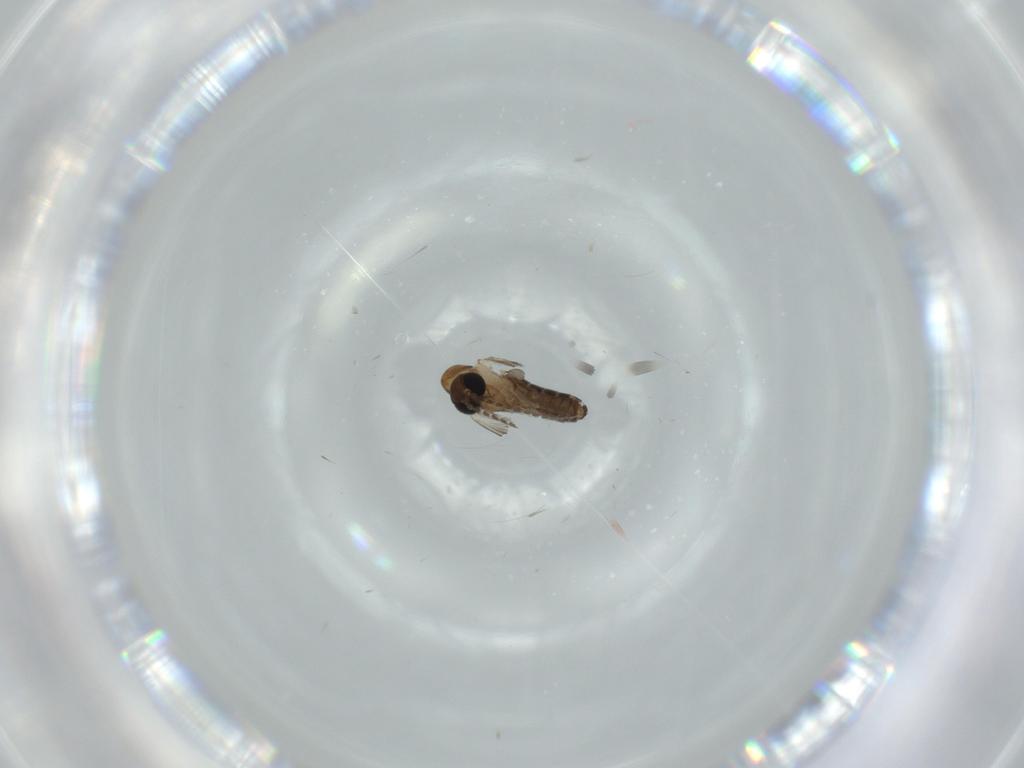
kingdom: Animalia
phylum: Arthropoda
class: Insecta
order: Diptera
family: Psychodidae
